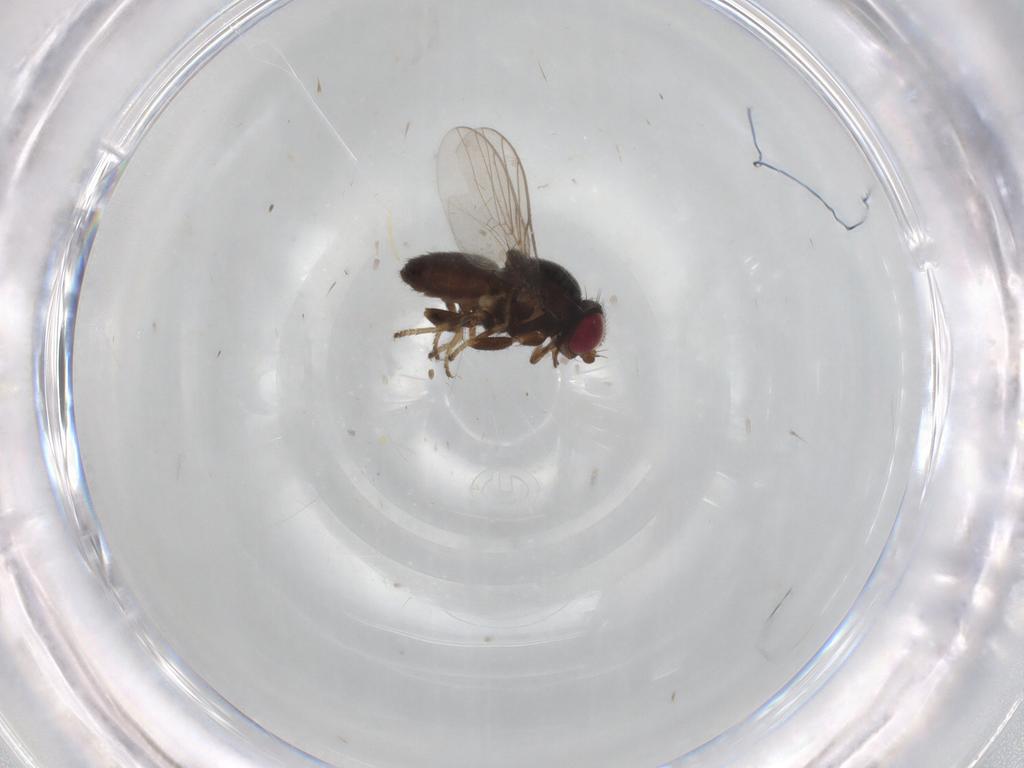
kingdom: Animalia
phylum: Arthropoda
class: Insecta
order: Diptera
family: Chloropidae
